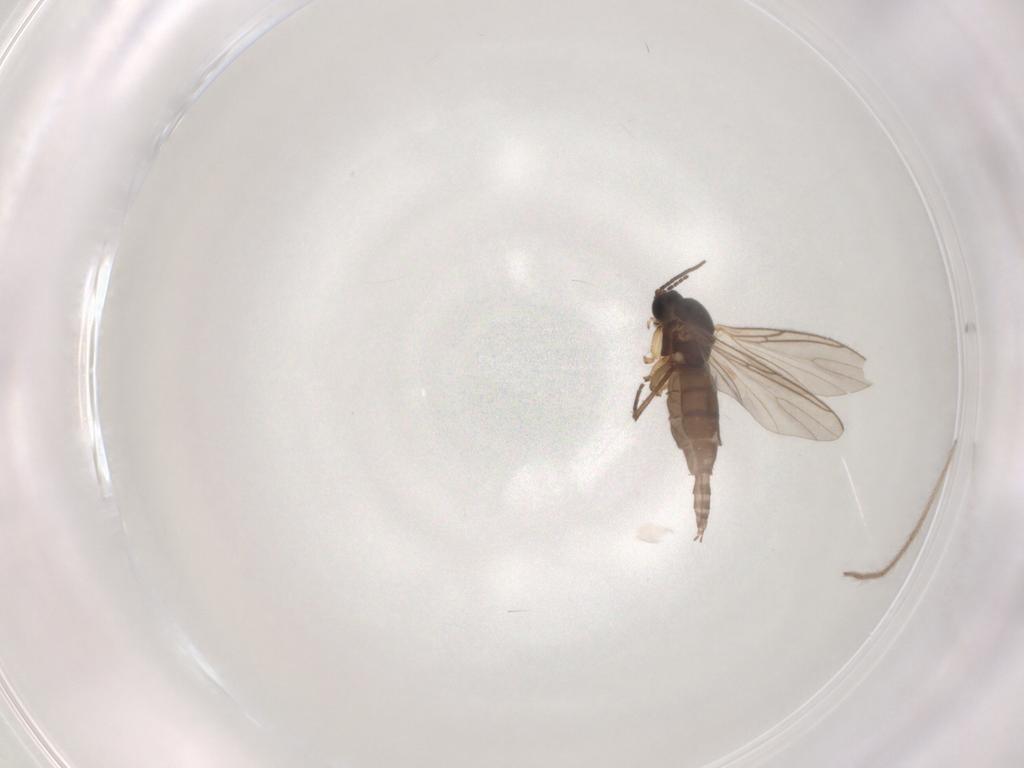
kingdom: Animalia
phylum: Arthropoda
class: Insecta
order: Diptera
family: Sciaridae
